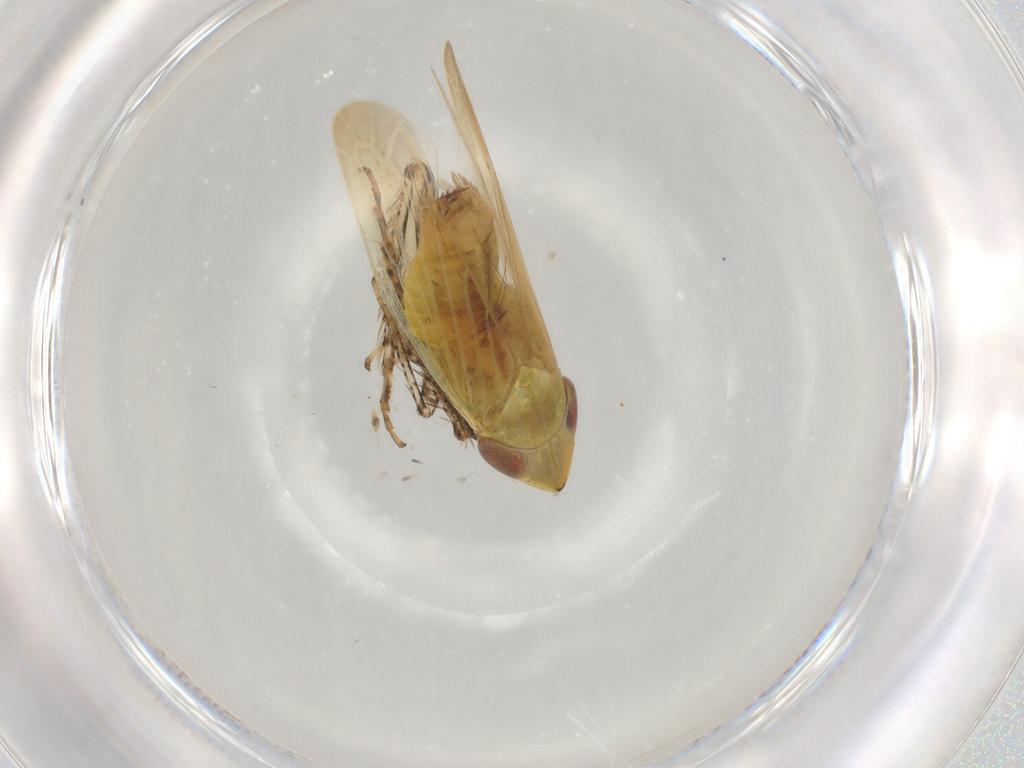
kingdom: Animalia
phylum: Arthropoda
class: Insecta
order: Hemiptera
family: Cicadellidae
